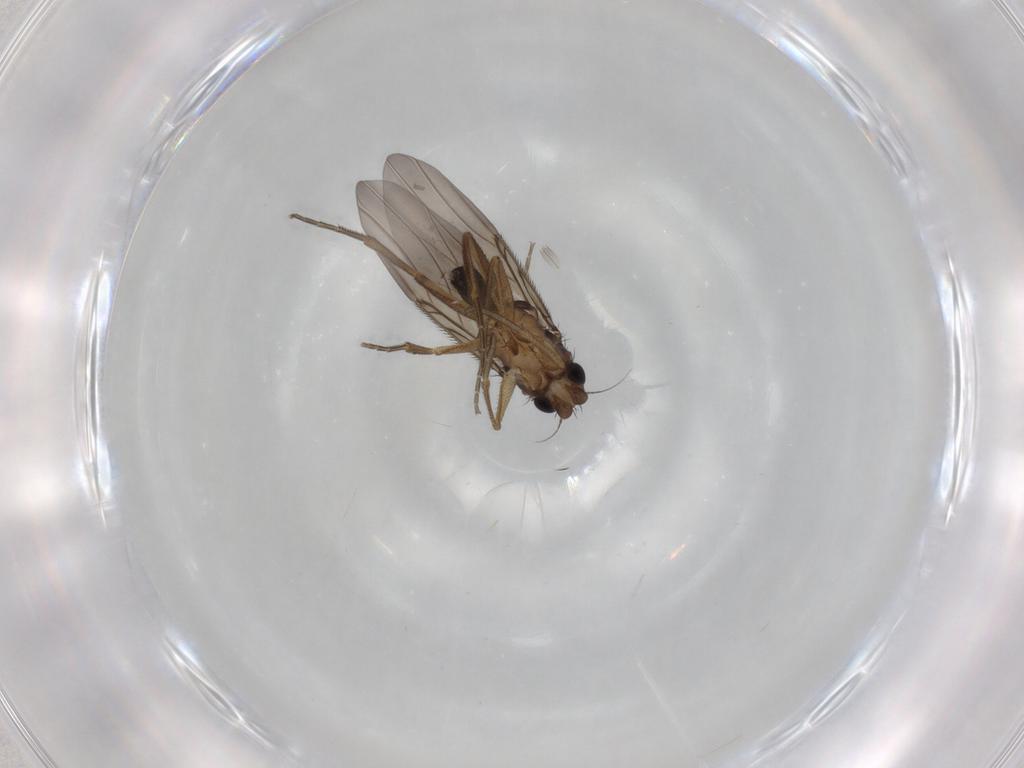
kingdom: Animalia
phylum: Arthropoda
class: Insecta
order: Diptera
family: Phoridae
